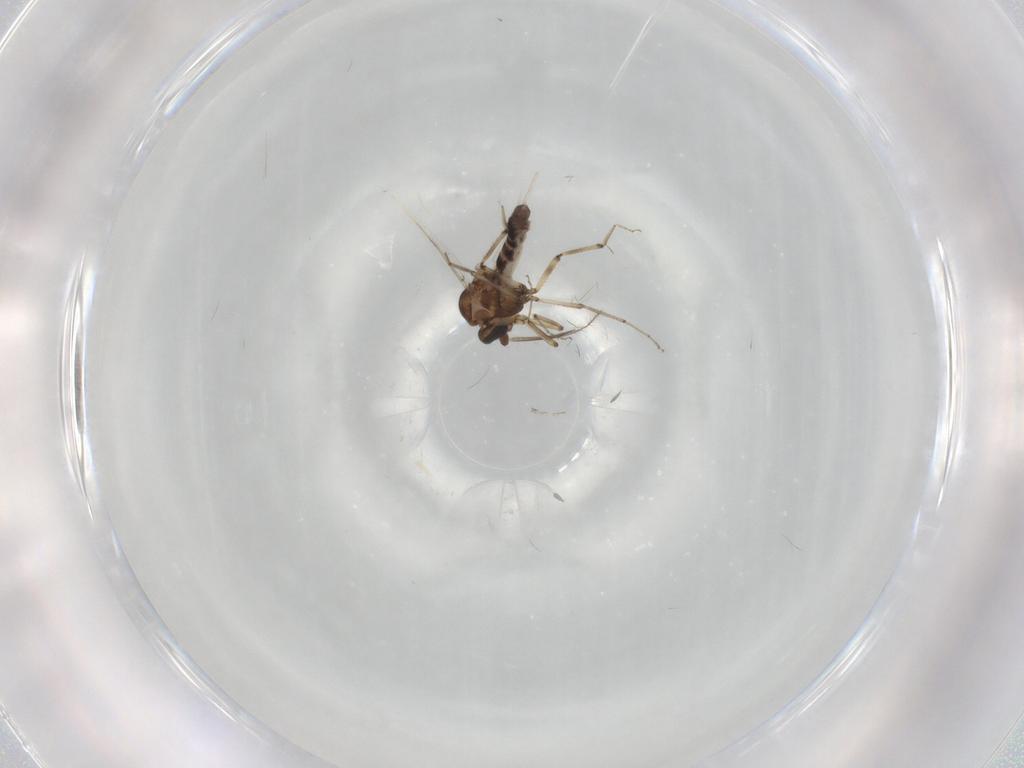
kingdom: Animalia
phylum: Arthropoda
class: Insecta
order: Diptera
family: Ceratopogonidae
